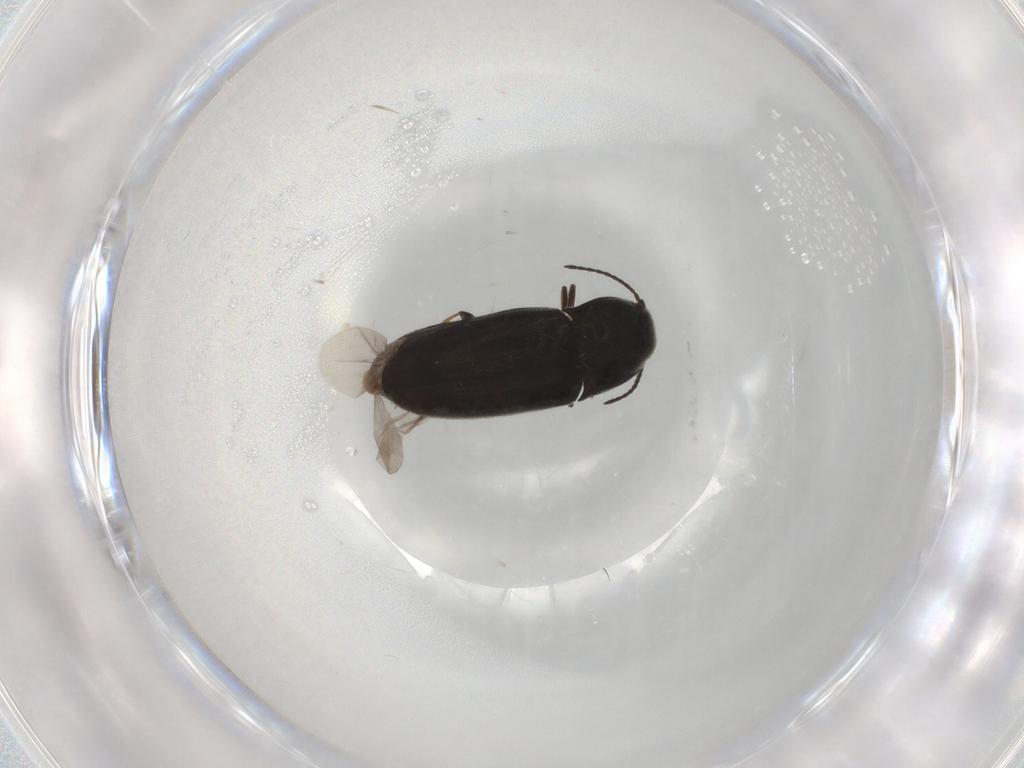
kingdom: Animalia
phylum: Arthropoda
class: Insecta
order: Coleoptera
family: Elateridae
